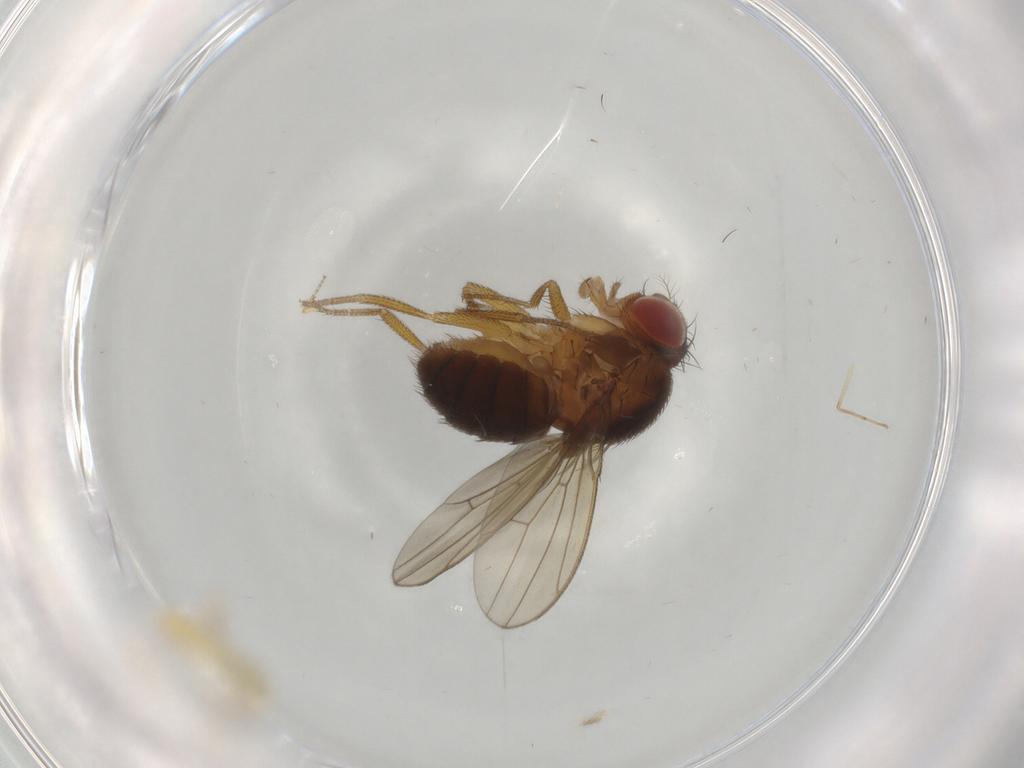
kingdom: Animalia
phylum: Arthropoda
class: Insecta
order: Diptera
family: Drosophilidae
